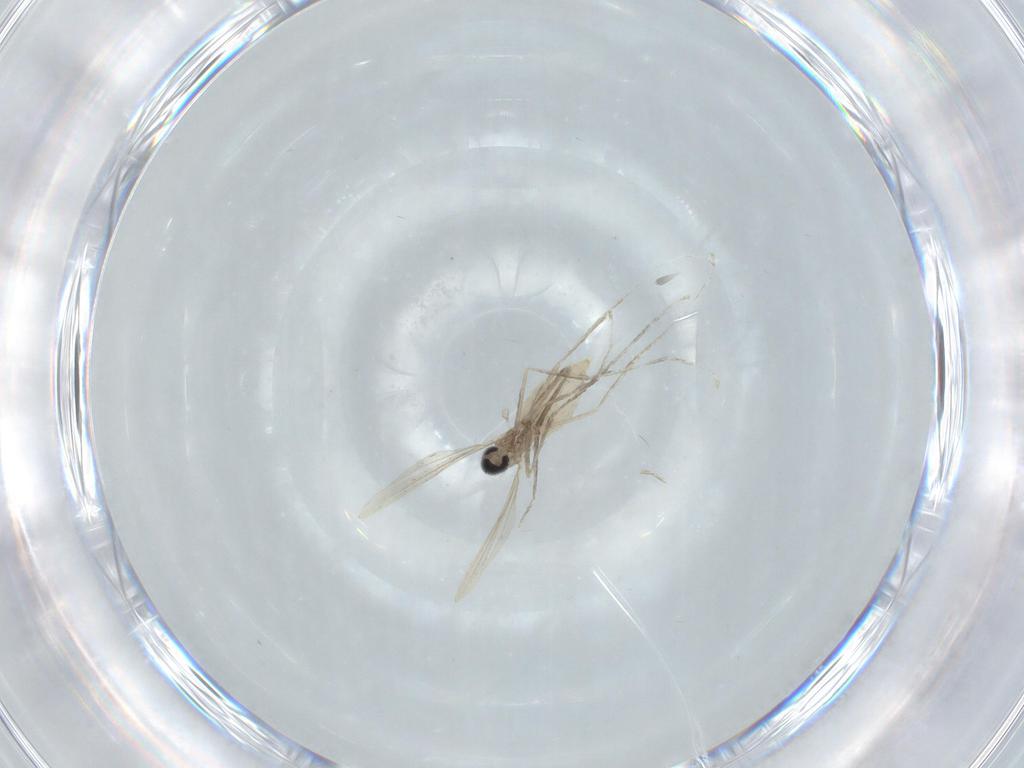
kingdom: Animalia
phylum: Arthropoda
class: Insecta
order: Diptera
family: Cecidomyiidae
